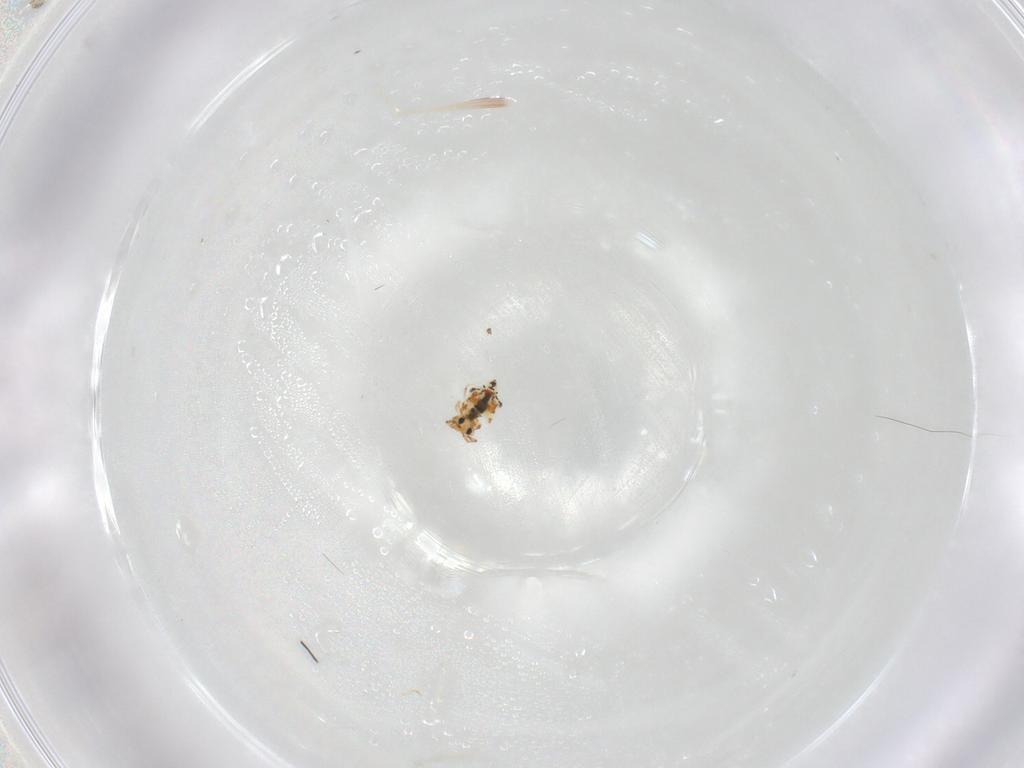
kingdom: Animalia
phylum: Arthropoda
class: Collembola
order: Symphypleona
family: Bourletiellidae
